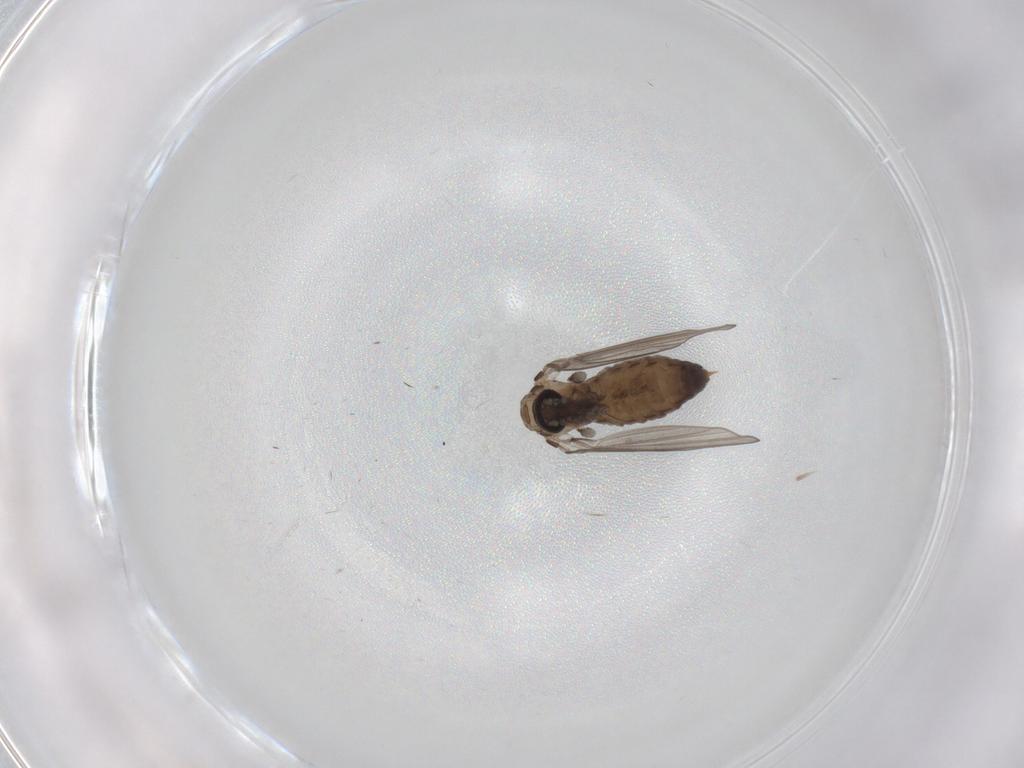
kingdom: Animalia
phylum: Arthropoda
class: Insecta
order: Diptera
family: Psychodidae
